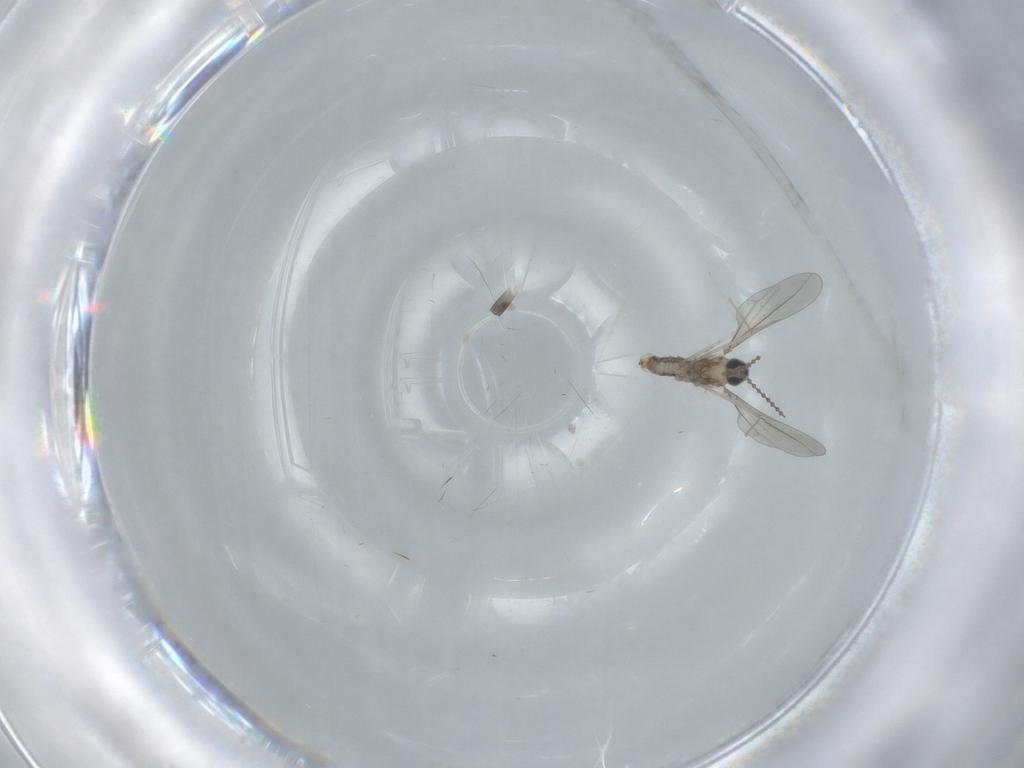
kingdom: Animalia
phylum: Arthropoda
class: Insecta
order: Diptera
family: Cecidomyiidae
